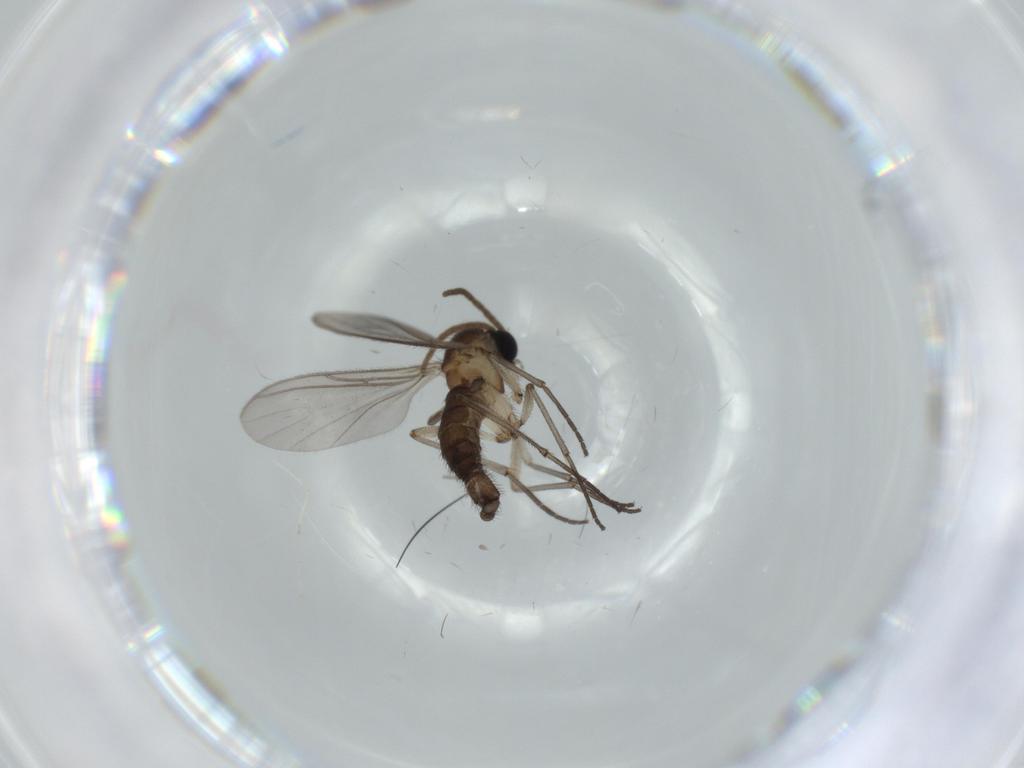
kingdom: Animalia
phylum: Arthropoda
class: Insecta
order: Diptera
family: Sciaridae
